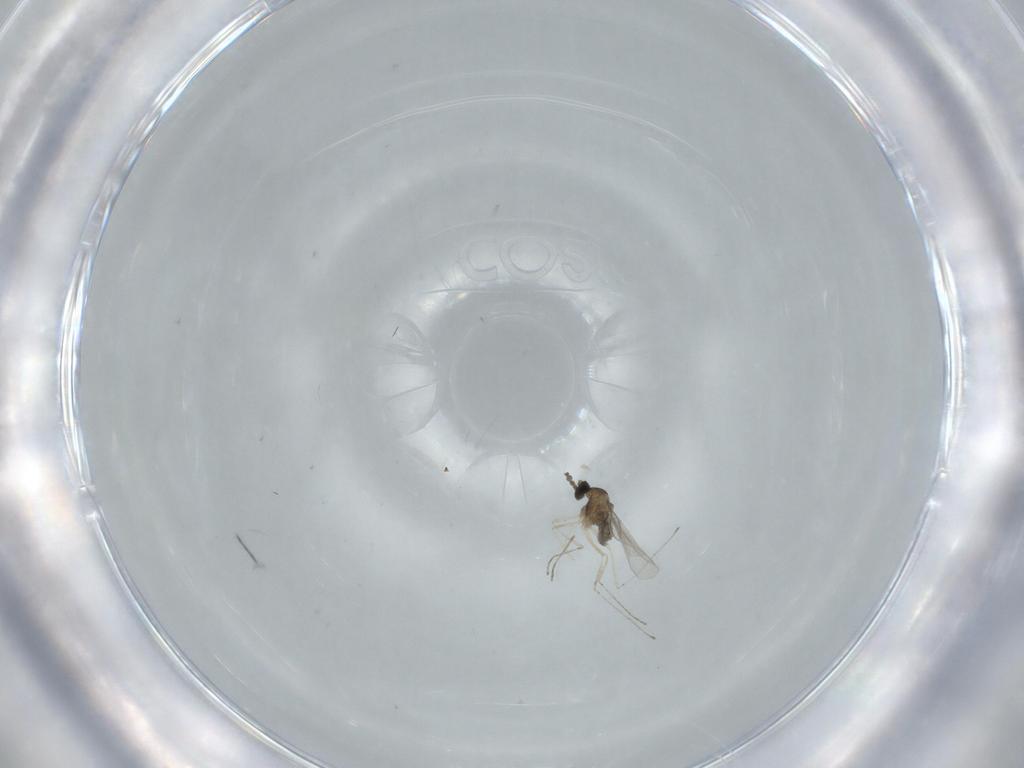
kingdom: Animalia
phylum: Arthropoda
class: Insecta
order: Diptera
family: Cecidomyiidae
